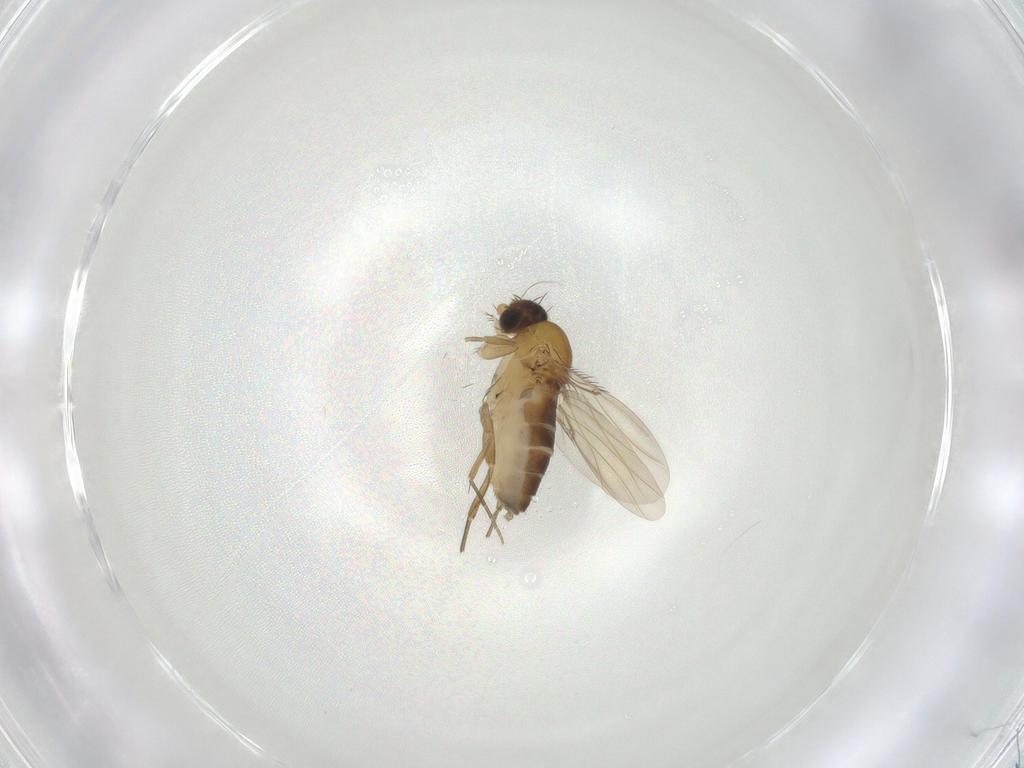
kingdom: Animalia
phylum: Arthropoda
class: Insecta
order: Diptera
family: Phoridae
